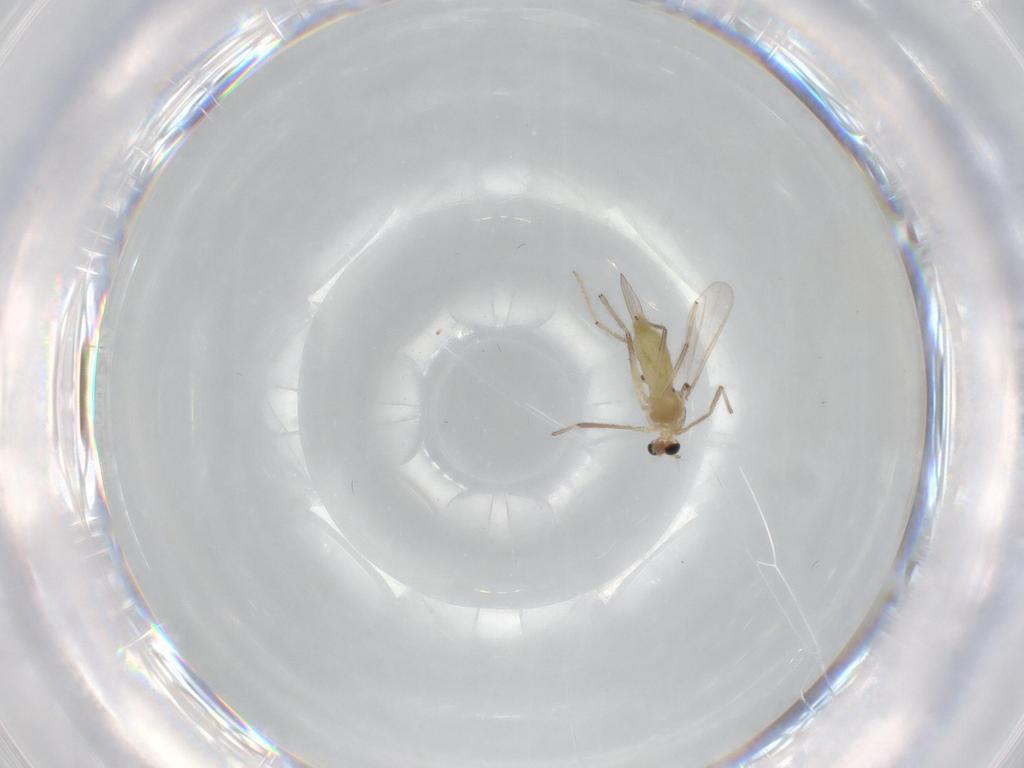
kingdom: Animalia
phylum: Arthropoda
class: Insecta
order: Diptera
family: Chironomidae
